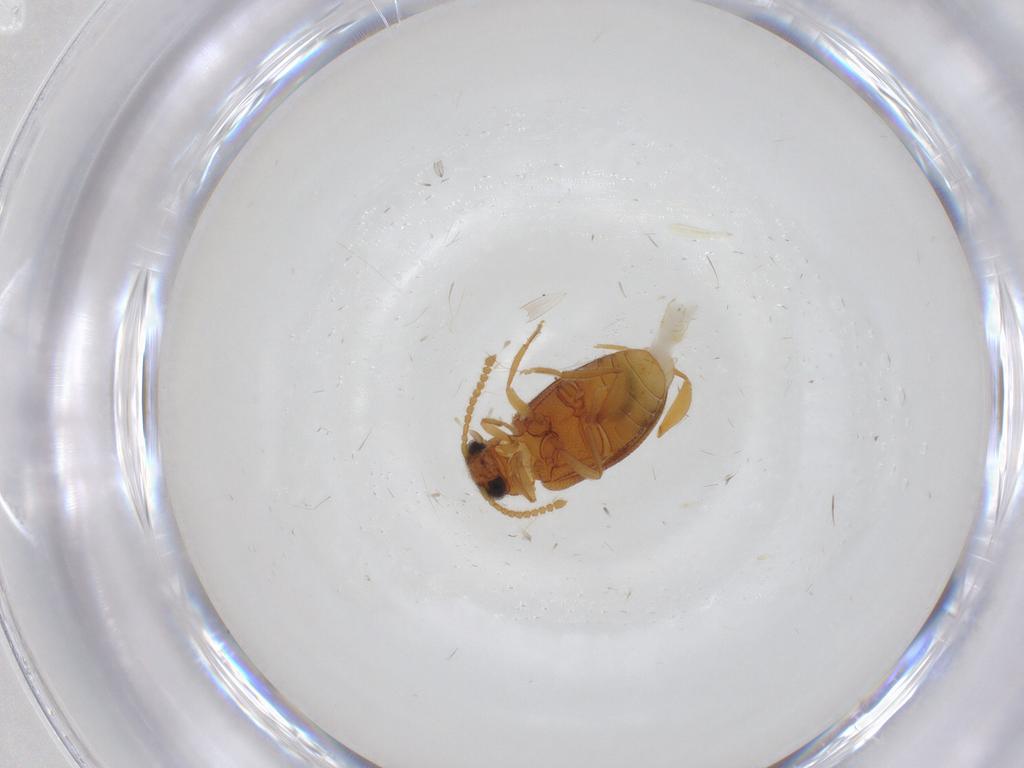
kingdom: Animalia
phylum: Arthropoda
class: Insecta
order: Coleoptera
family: Aderidae
